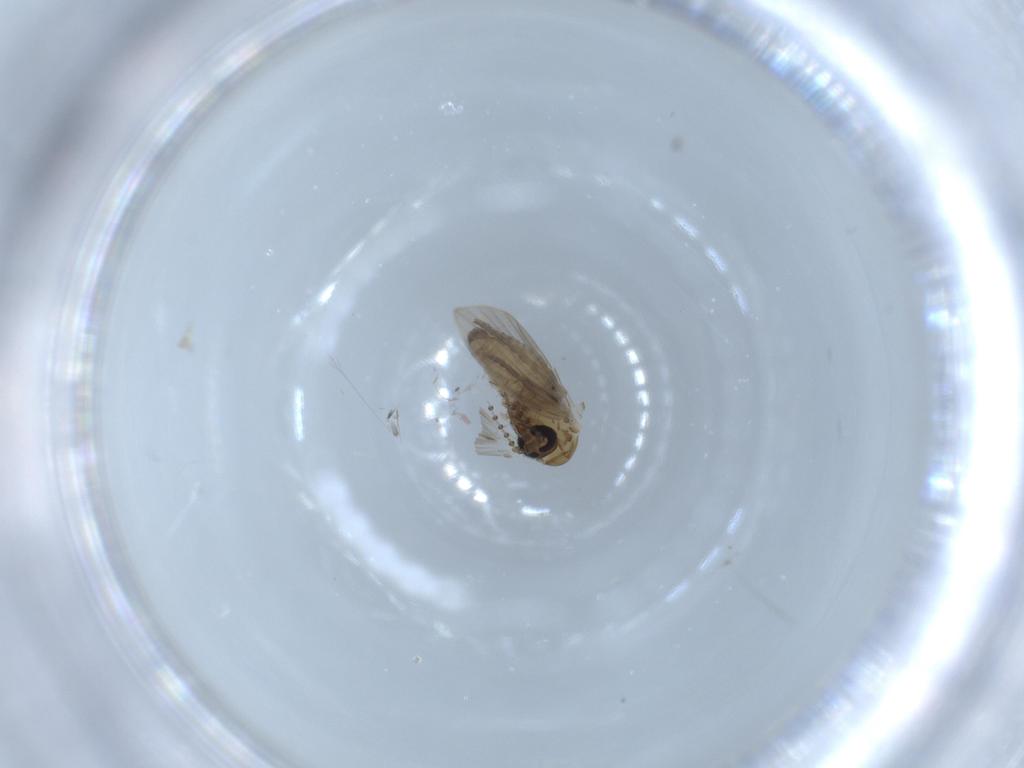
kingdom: Animalia
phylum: Arthropoda
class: Insecta
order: Diptera
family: Psychodidae
